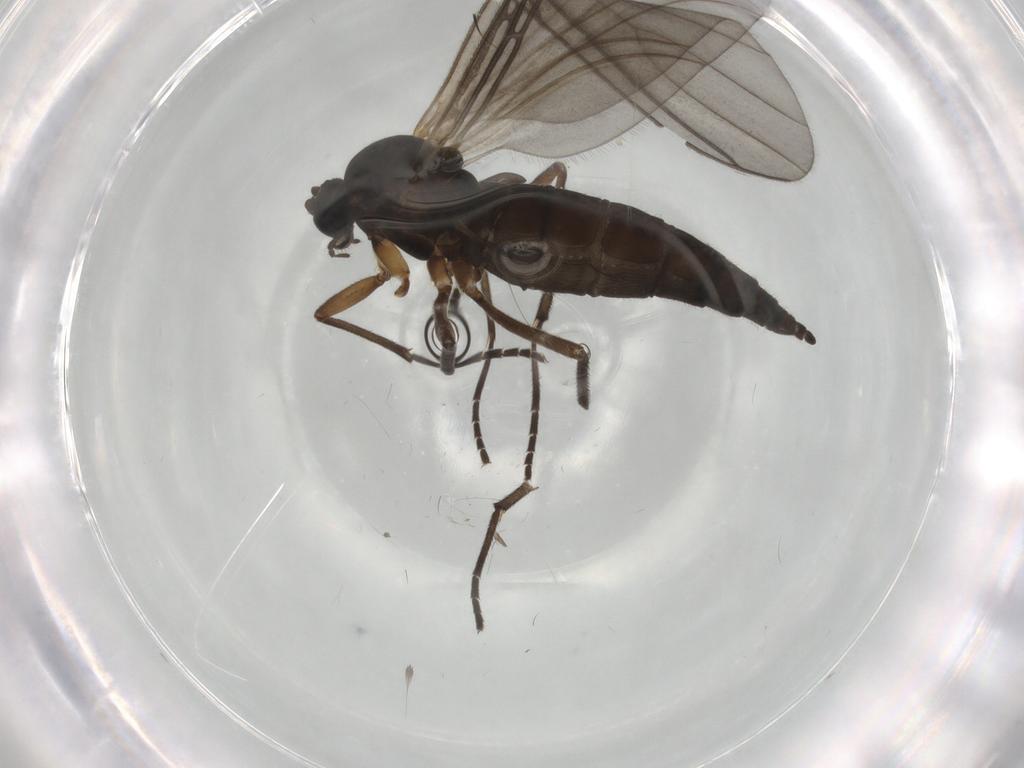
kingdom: Animalia
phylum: Arthropoda
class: Insecta
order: Diptera
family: Sciaridae
